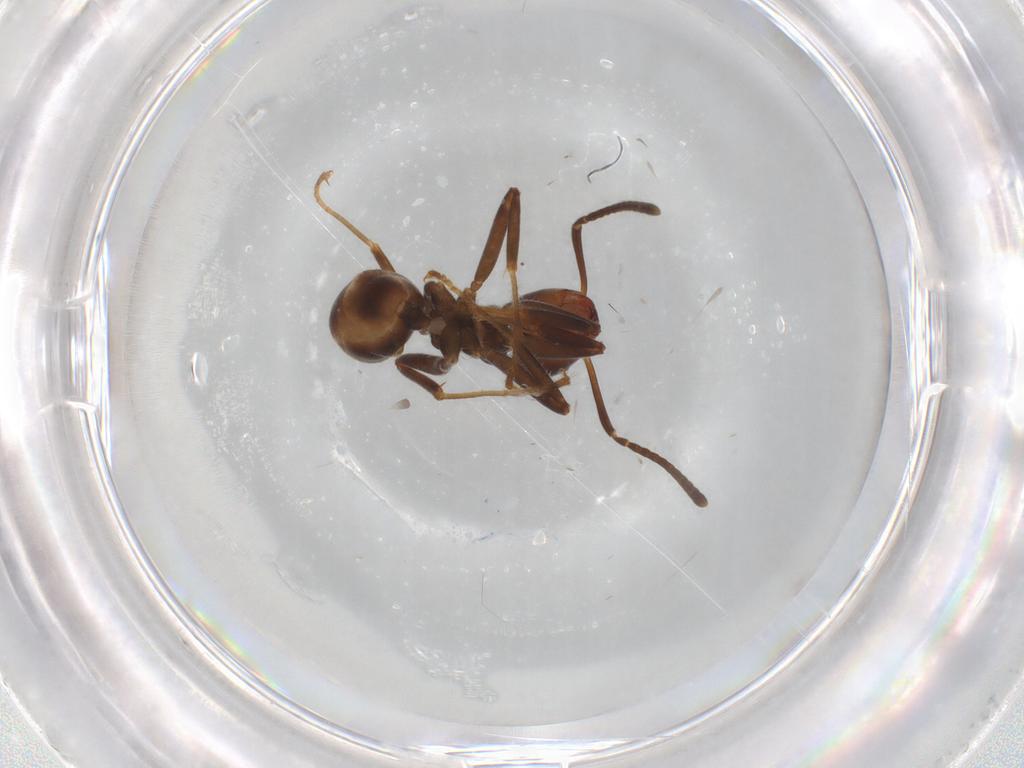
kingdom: Animalia
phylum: Arthropoda
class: Insecta
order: Hymenoptera
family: Formicidae
